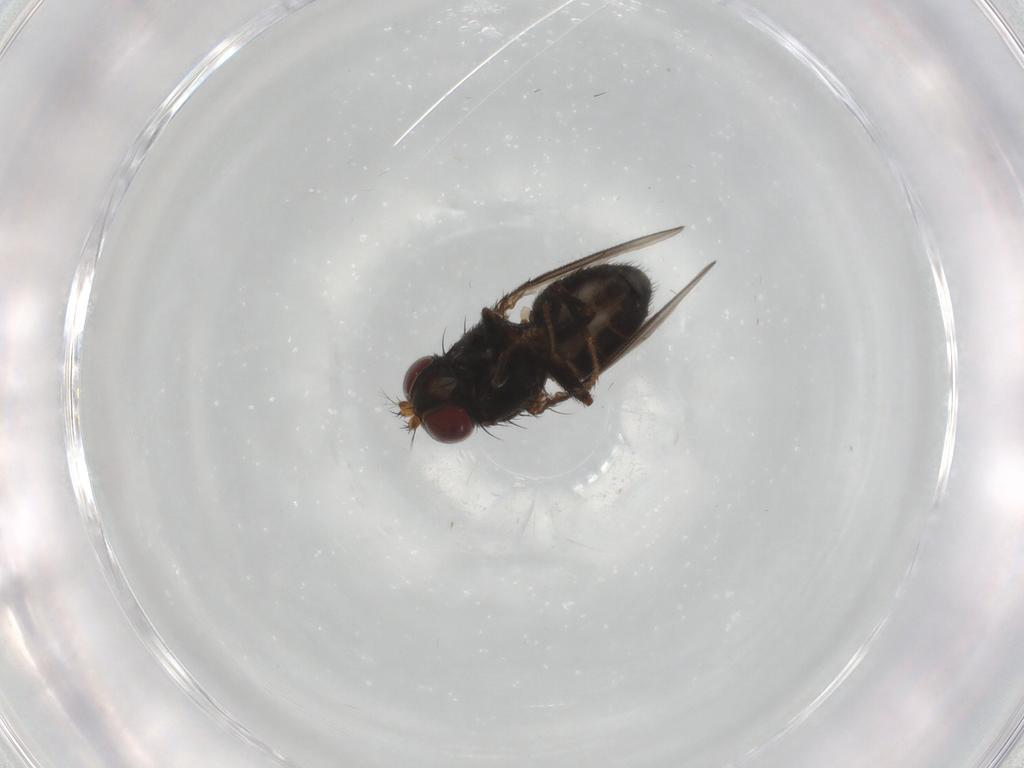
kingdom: Animalia
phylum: Arthropoda
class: Insecta
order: Diptera
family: Ephydridae
